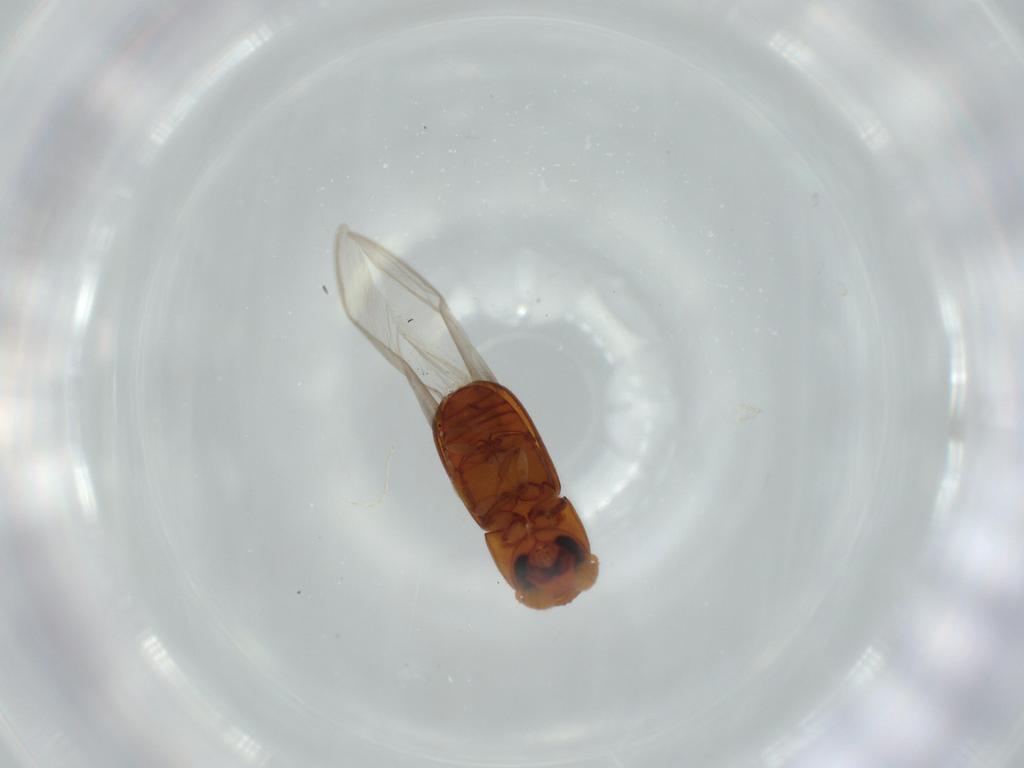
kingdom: Animalia
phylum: Arthropoda
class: Insecta
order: Coleoptera
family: Curculionidae
